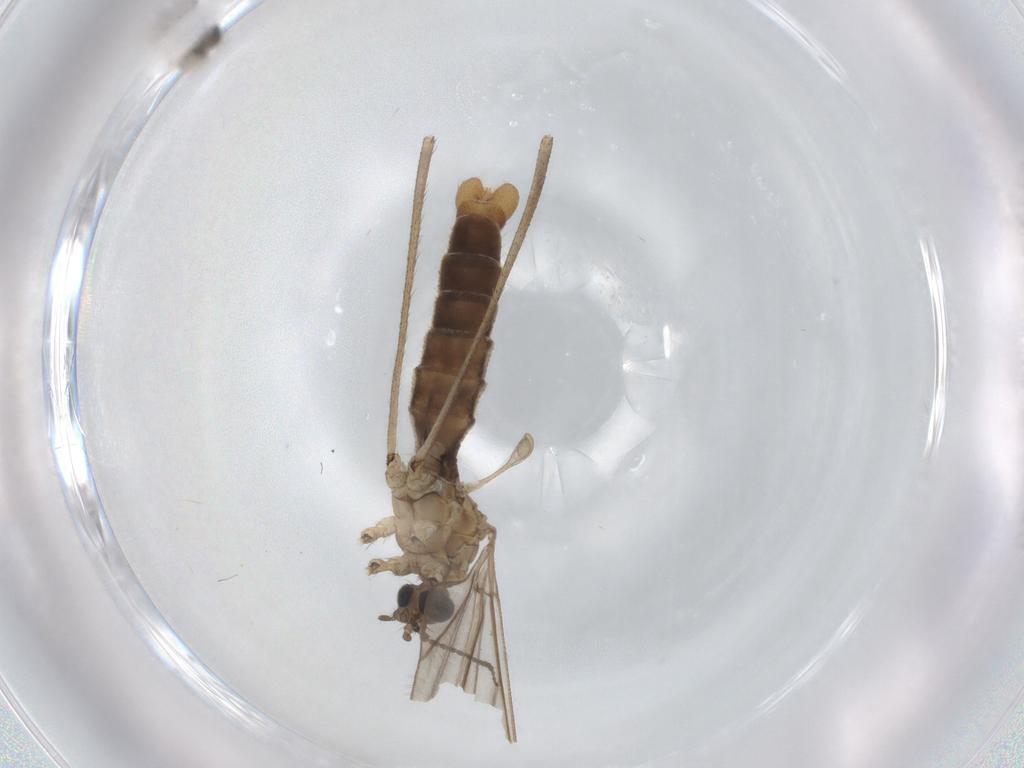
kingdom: Animalia
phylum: Arthropoda
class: Insecta
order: Diptera
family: Limoniidae
